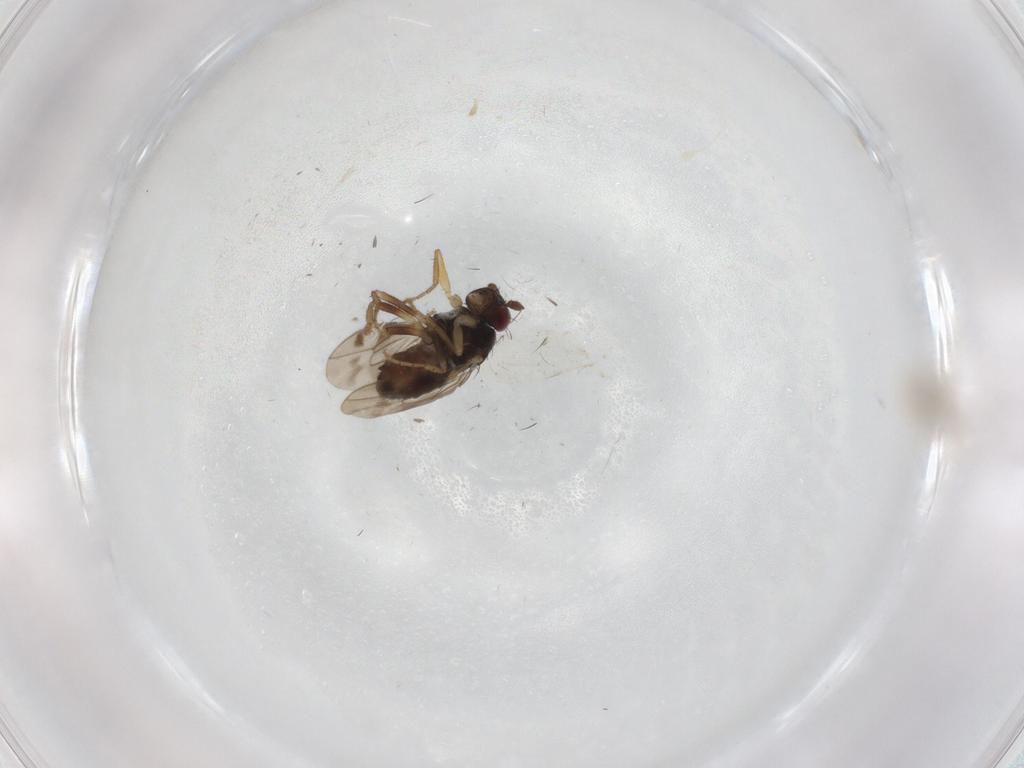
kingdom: Animalia
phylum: Arthropoda
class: Insecta
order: Diptera
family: Sphaeroceridae
